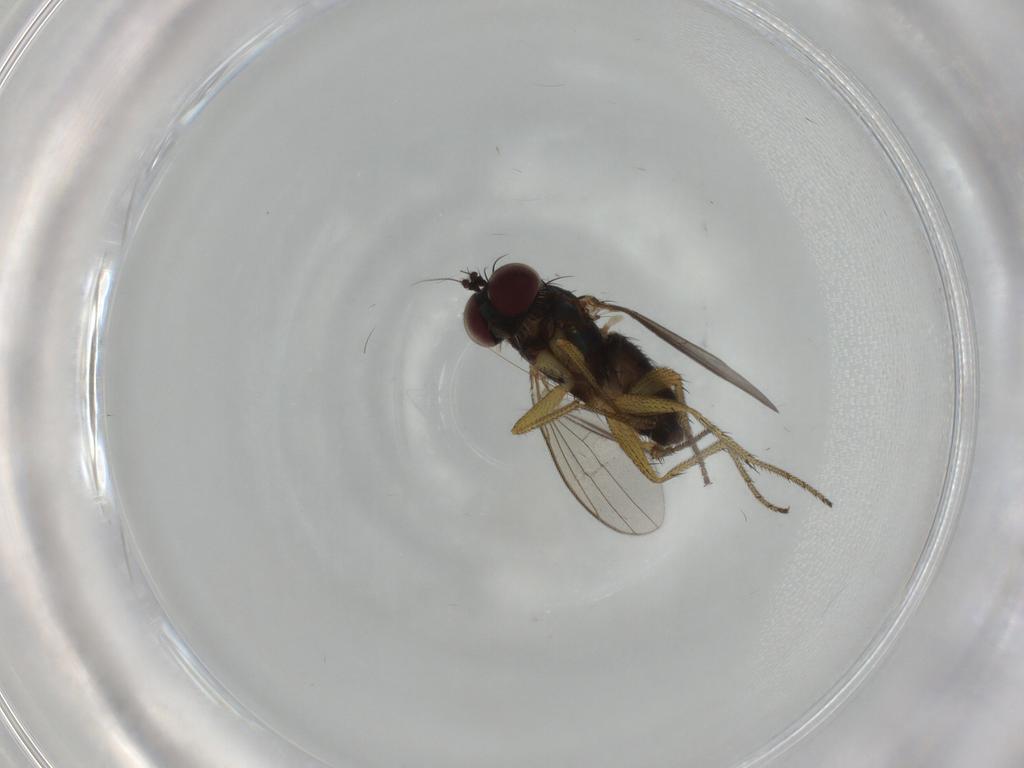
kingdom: Animalia
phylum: Arthropoda
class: Insecta
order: Diptera
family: Dolichopodidae
